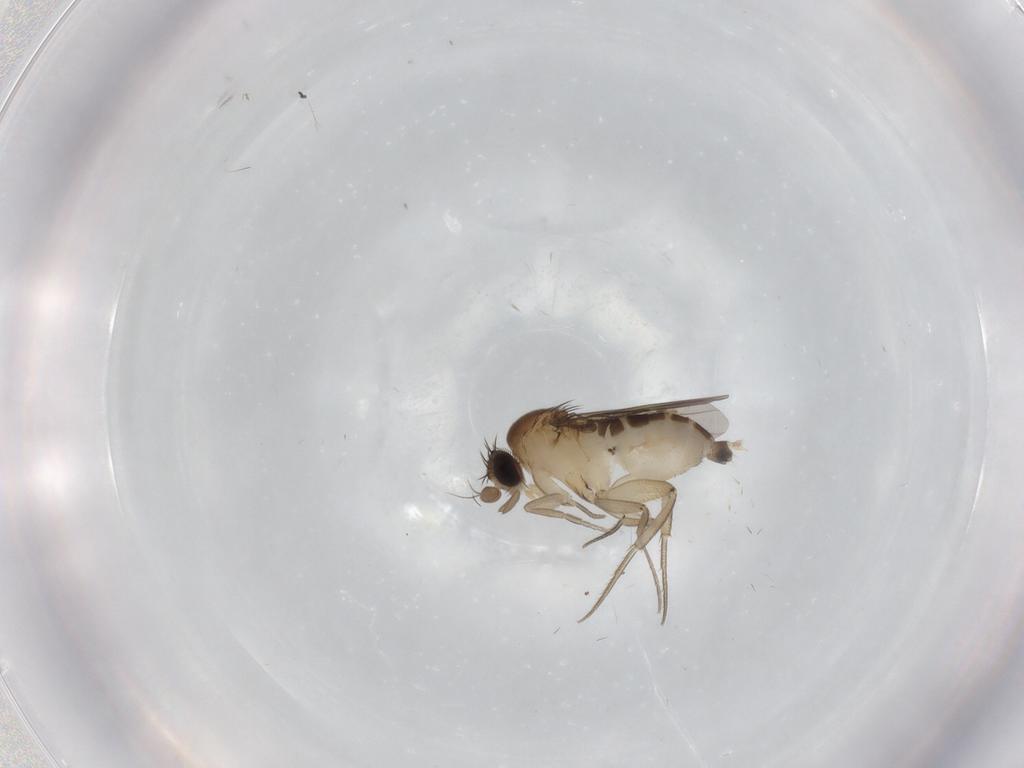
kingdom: Animalia
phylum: Arthropoda
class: Insecta
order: Diptera
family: Phoridae
